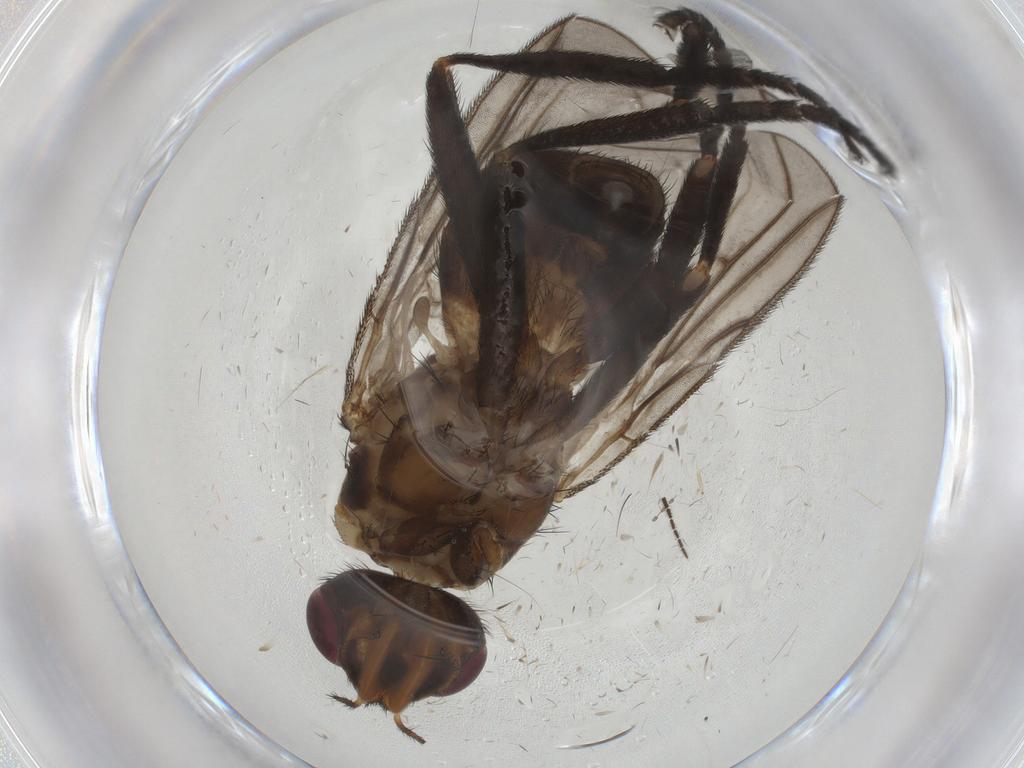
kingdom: Animalia
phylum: Arthropoda
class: Insecta
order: Diptera
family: Calliphoridae
